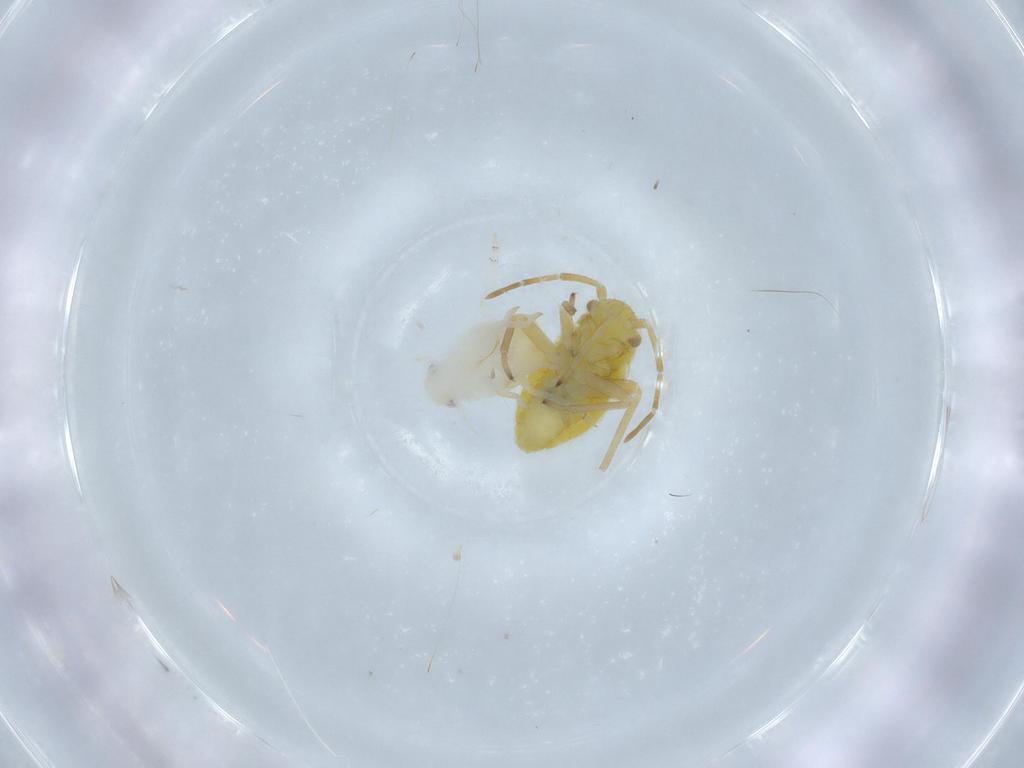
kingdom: Animalia
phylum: Arthropoda
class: Insecta
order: Hemiptera
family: Miridae
